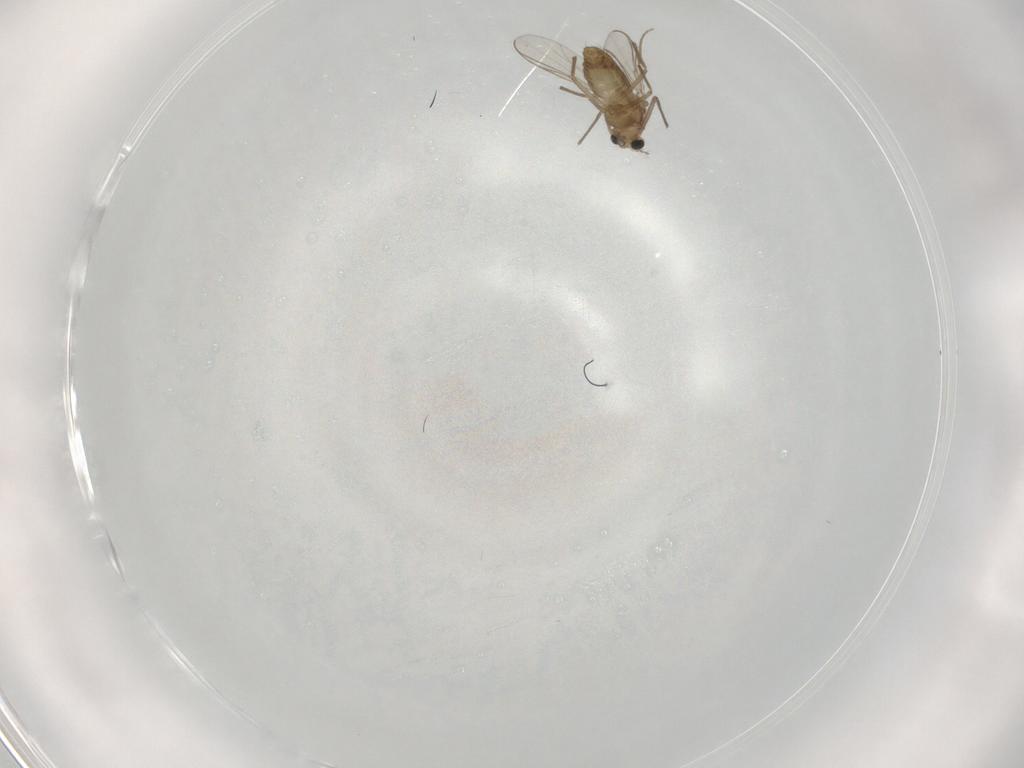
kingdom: Animalia
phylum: Arthropoda
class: Insecta
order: Diptera
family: Chironomidae
